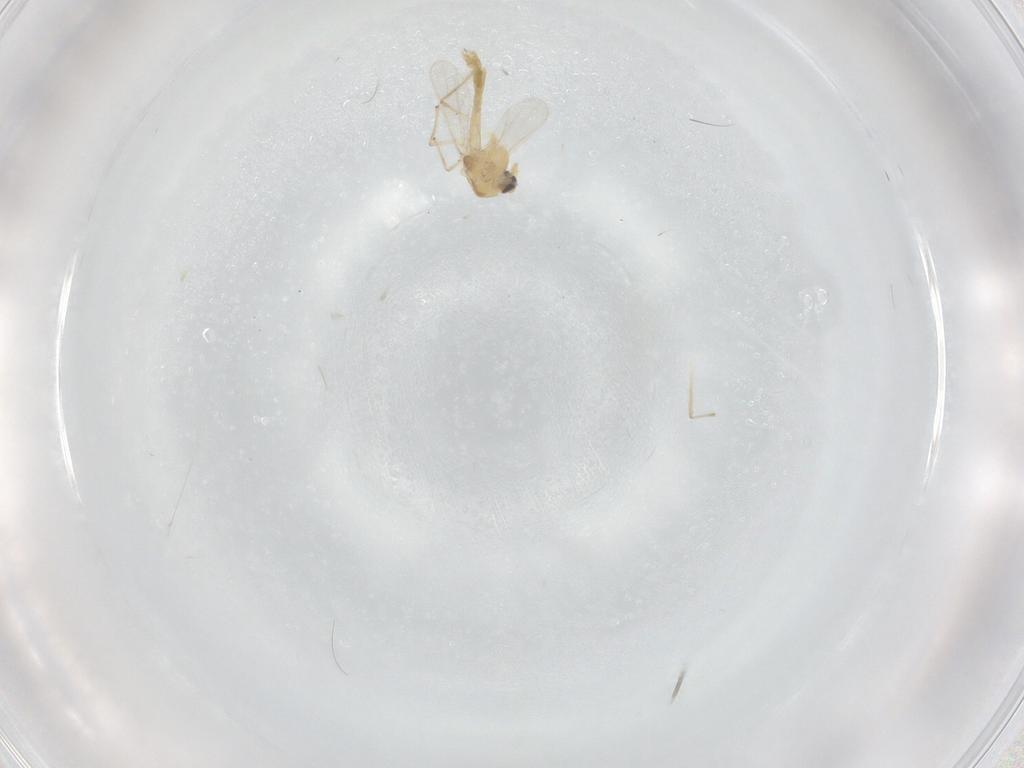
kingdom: Animalia
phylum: Arthropoda
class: Insecta
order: Diptera
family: Chironomidae
